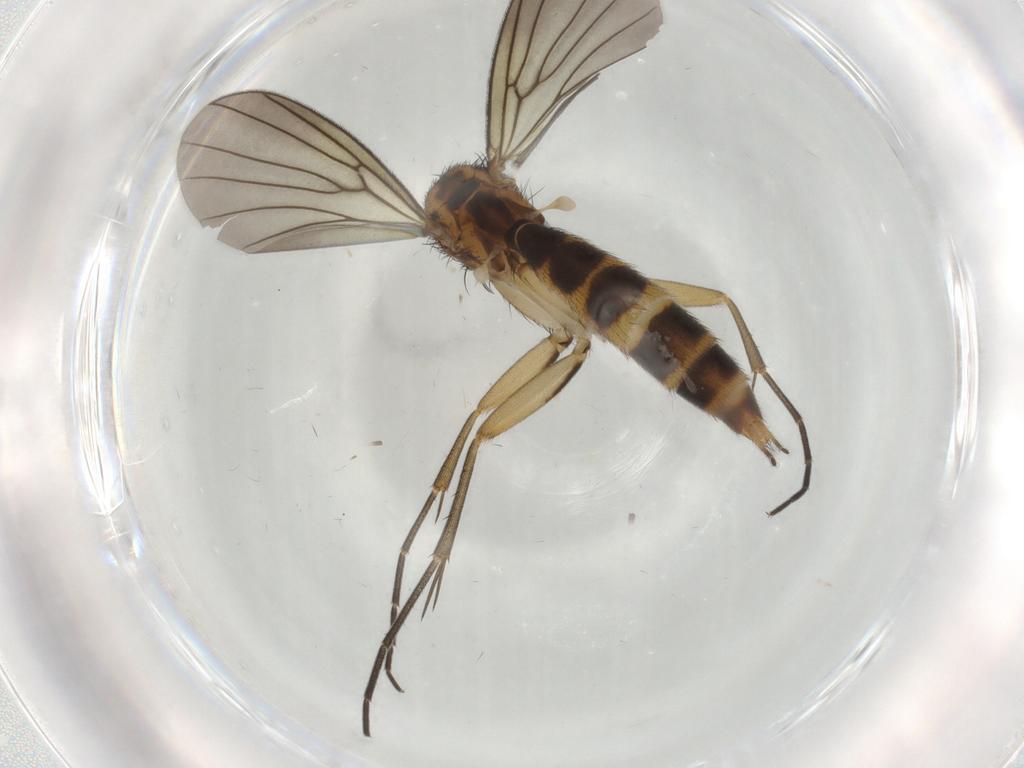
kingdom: Animalia
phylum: Arthropoda
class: Insecta
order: Diptera
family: Mycetophilidae
